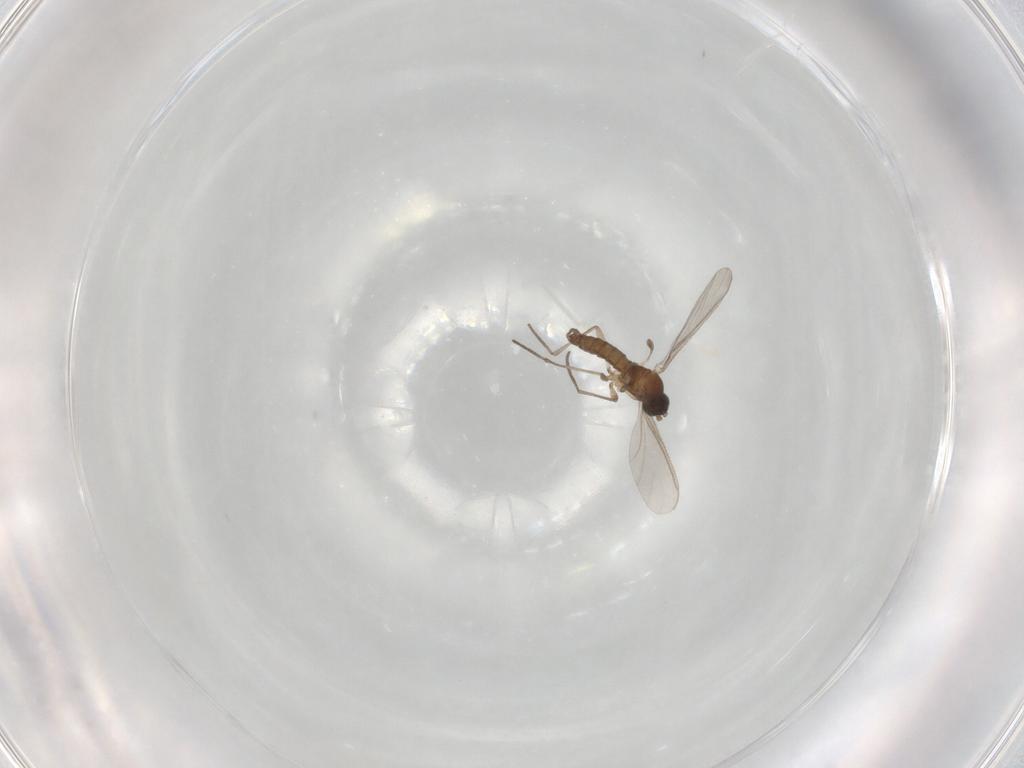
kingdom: Animalia
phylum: Arthropoda
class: Insecta
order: Diptera
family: Sciaridae
